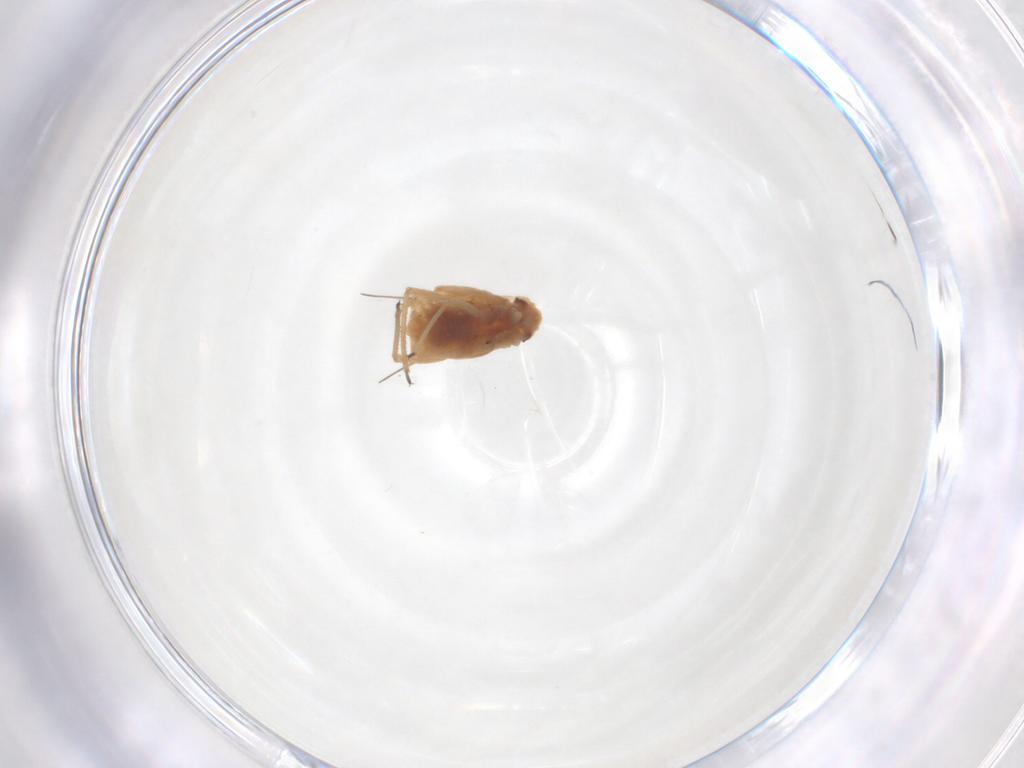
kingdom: Animalia
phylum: Arthropoda
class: Insecta
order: Hemiptera
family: Aphididae
